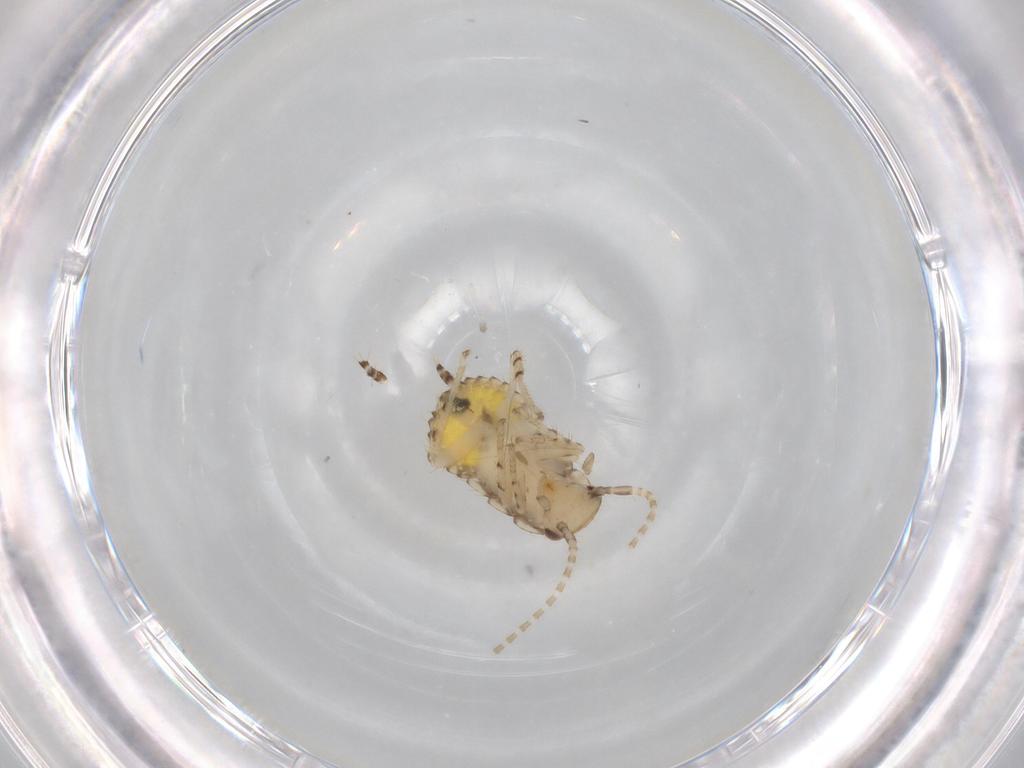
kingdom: Animalia
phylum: Arthropoda
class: Insecta
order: Blattodea
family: Ectobiidae
